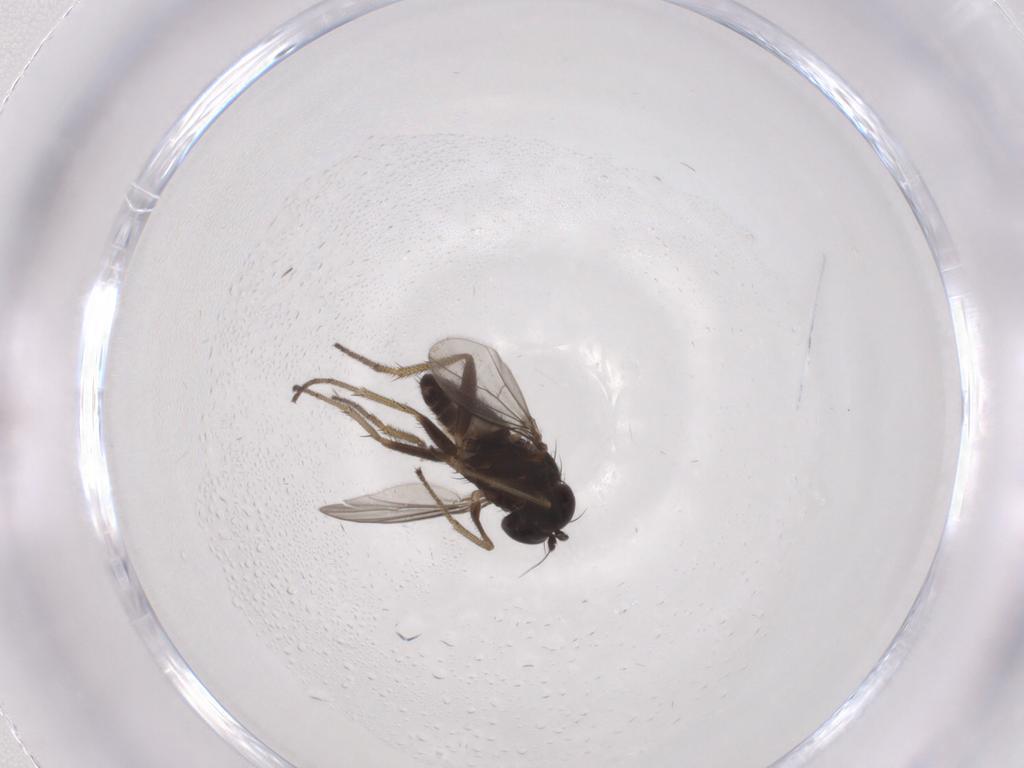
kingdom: Animalia
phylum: Arthropoda
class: Insecta
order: Diptera
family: Dolichopodidae
